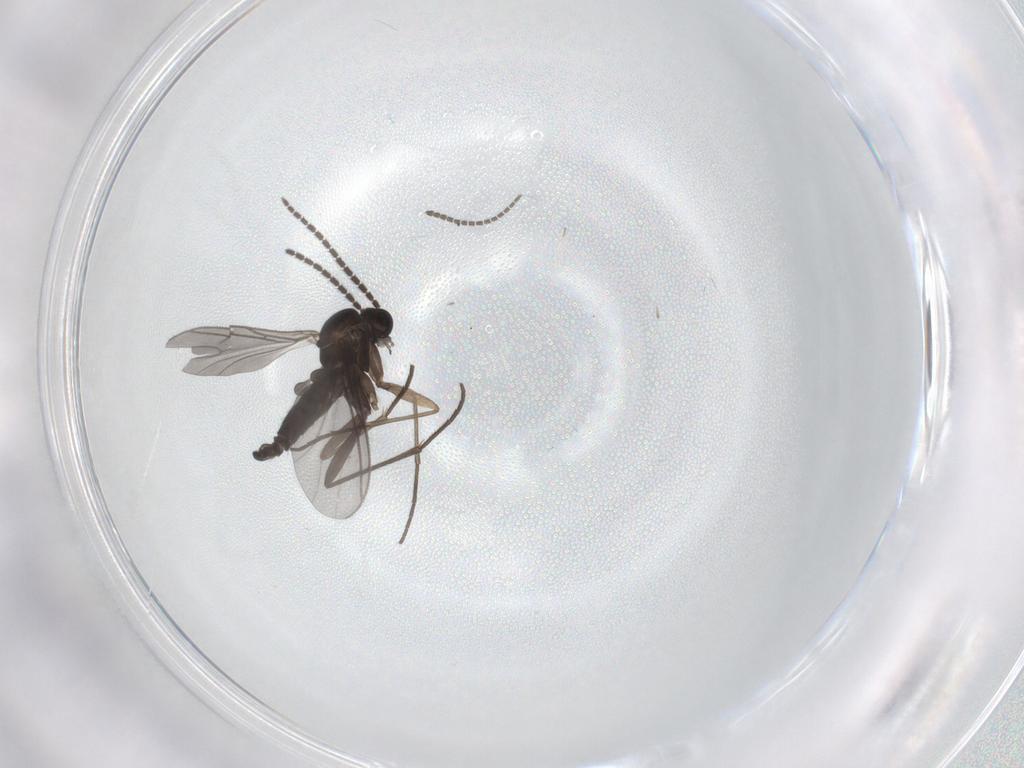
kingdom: Animalia
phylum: Arthropoda
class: Insecta
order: Diptera
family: Sciaridae
